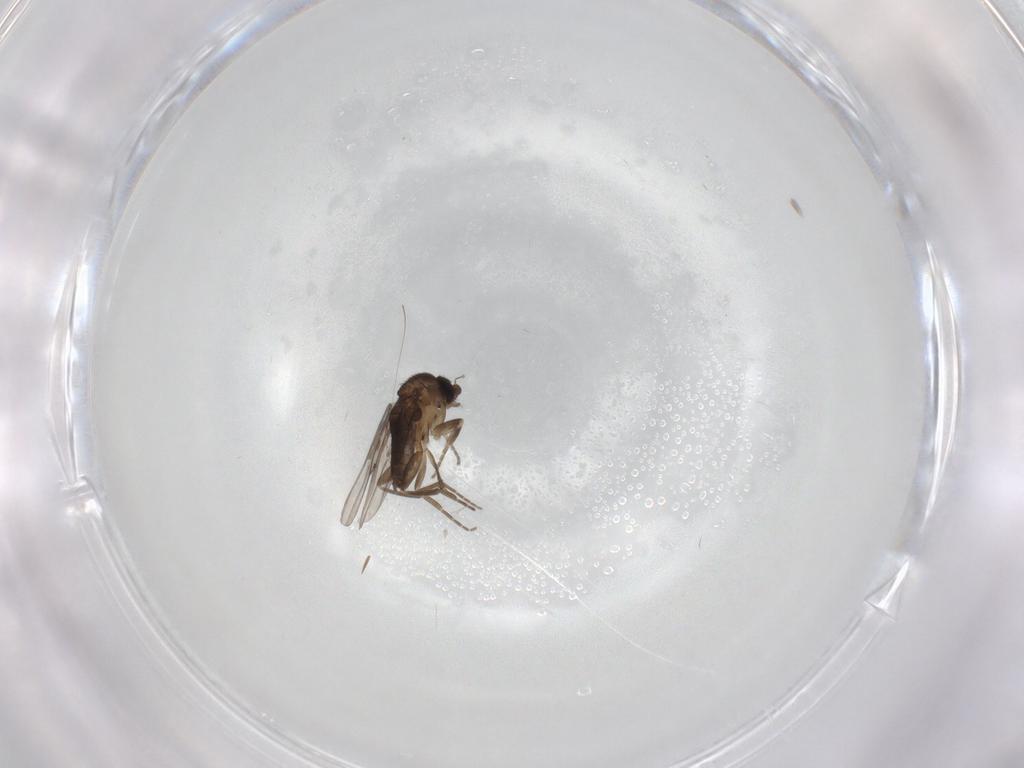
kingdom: Animalia
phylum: Arthropoda
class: Insecta
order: Diptera
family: Phoridae
